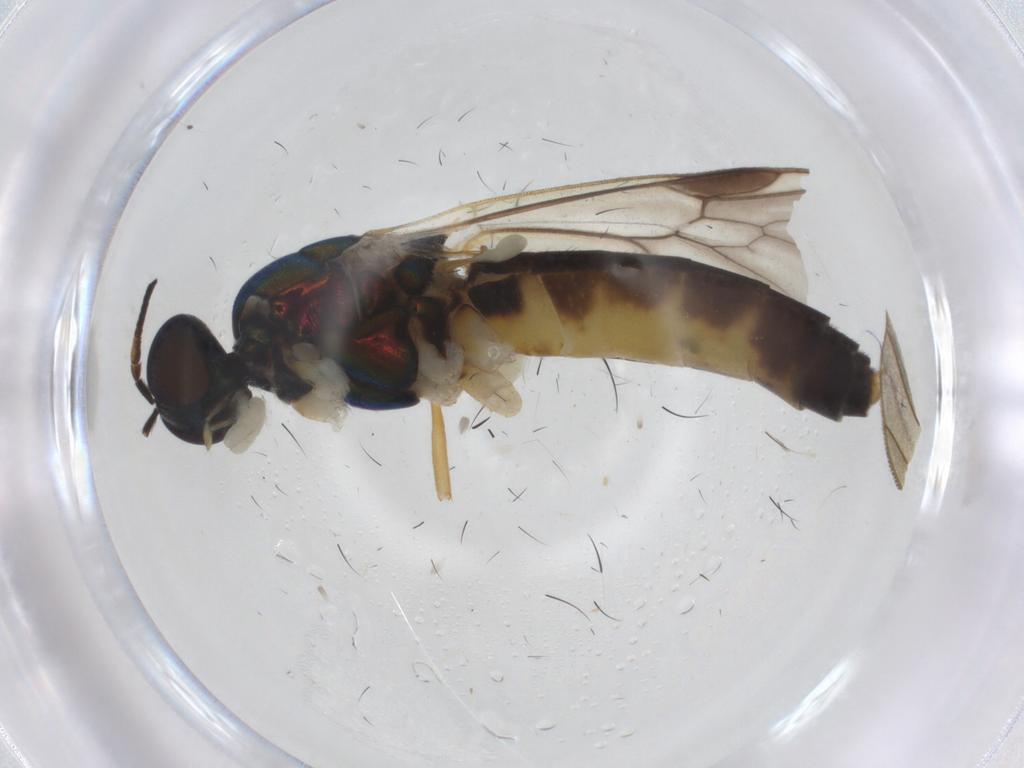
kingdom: Animalia
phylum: Arthropoda
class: Insecta
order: Diptera
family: Stratiomyidae
